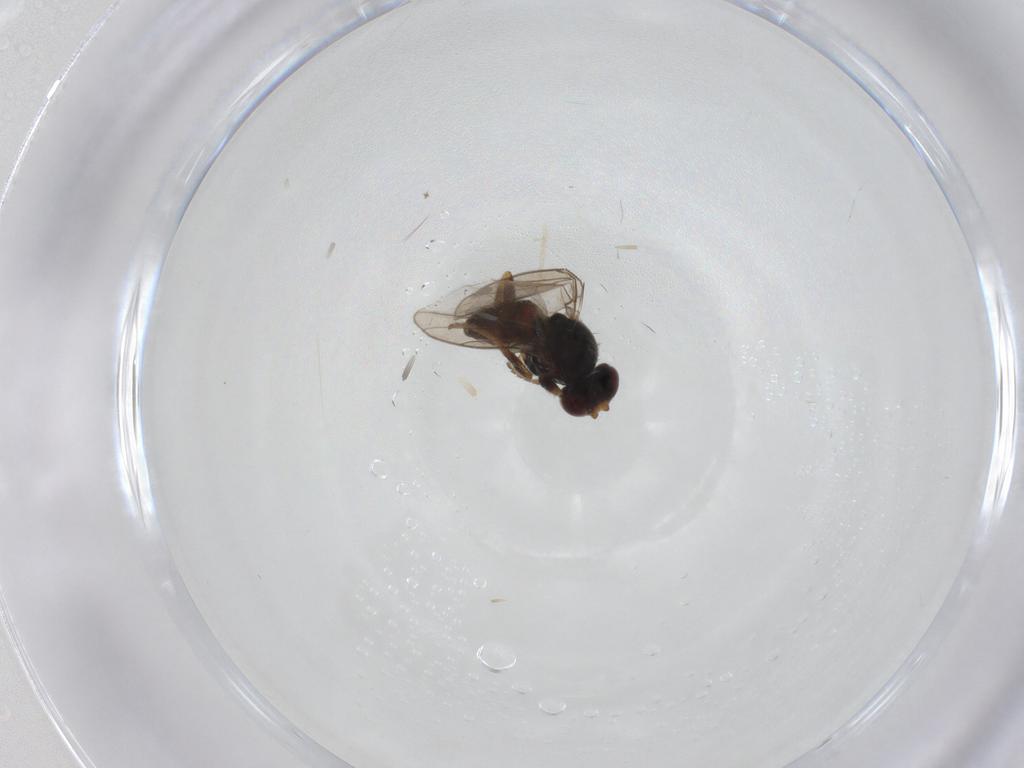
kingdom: Animalia
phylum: Arthropoda
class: Insecta
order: Diptera
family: Chloropidae
